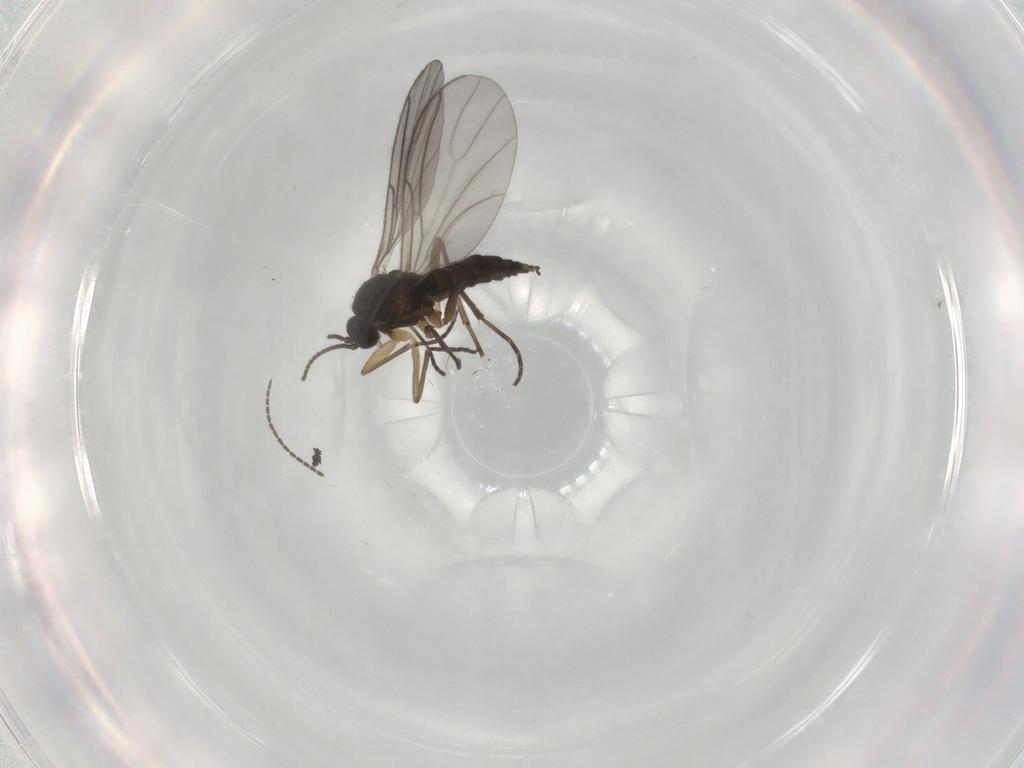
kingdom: Animalia
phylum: Arthropoda
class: Insecta
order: Diptera
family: Sciaridae
